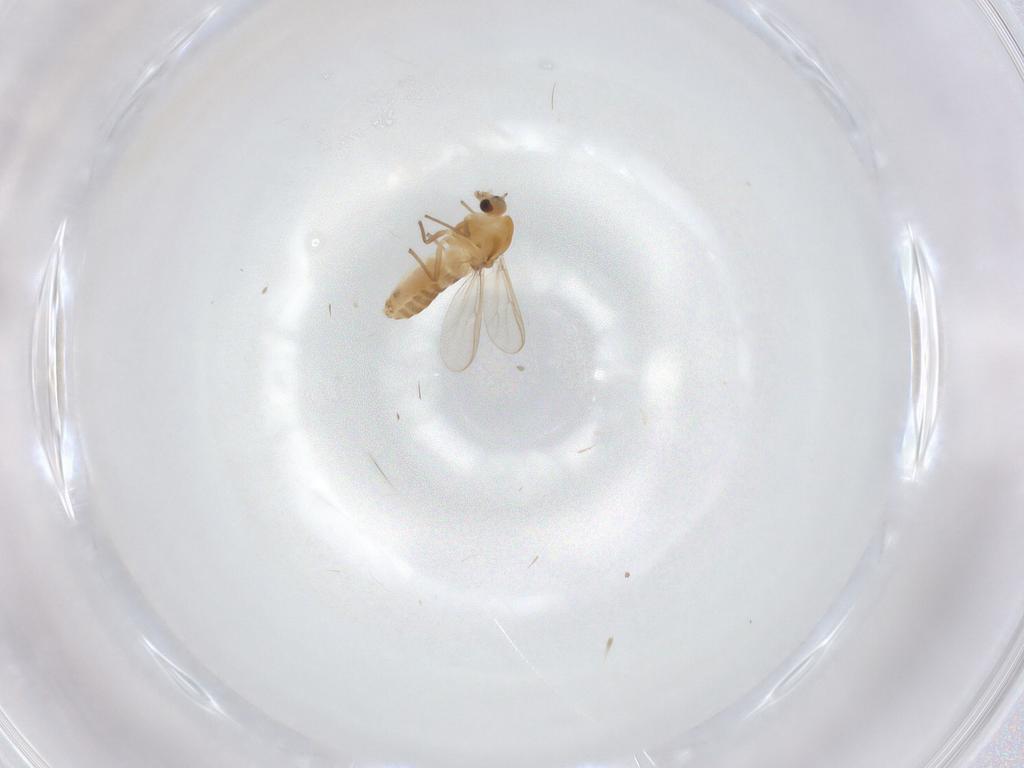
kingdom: Animalia
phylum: Arthropoda
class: Insecta
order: Diptera
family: Chironomidae
